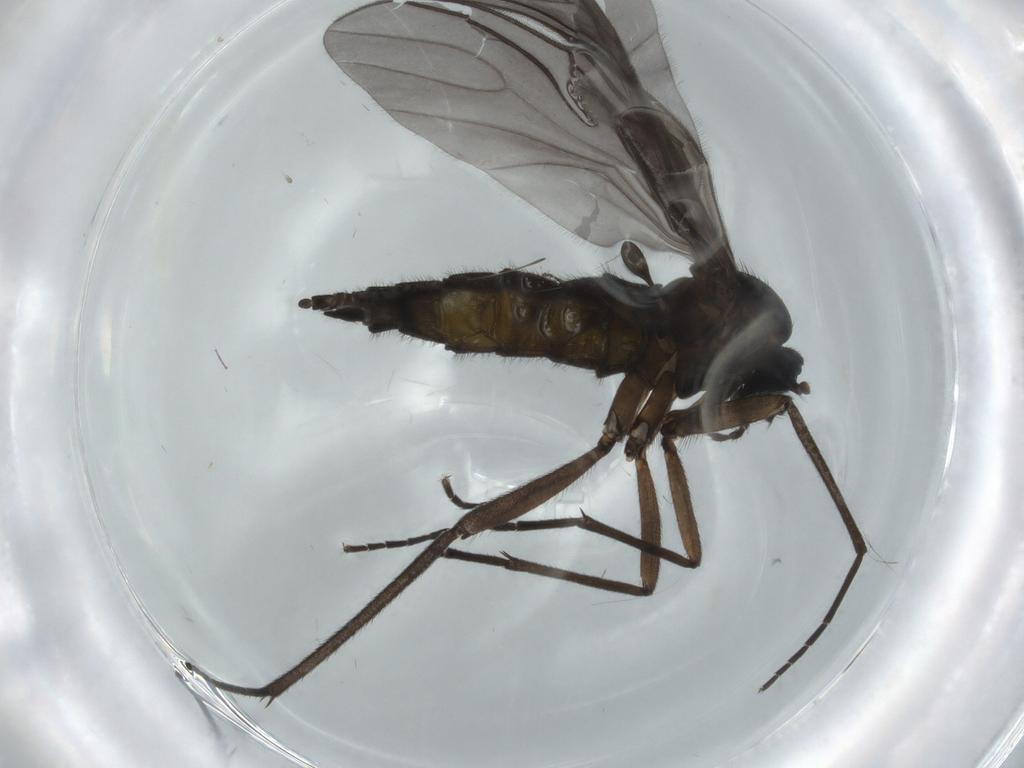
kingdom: Animalia
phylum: Arthropoda
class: Insecta
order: Diptera
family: Sciaridae
